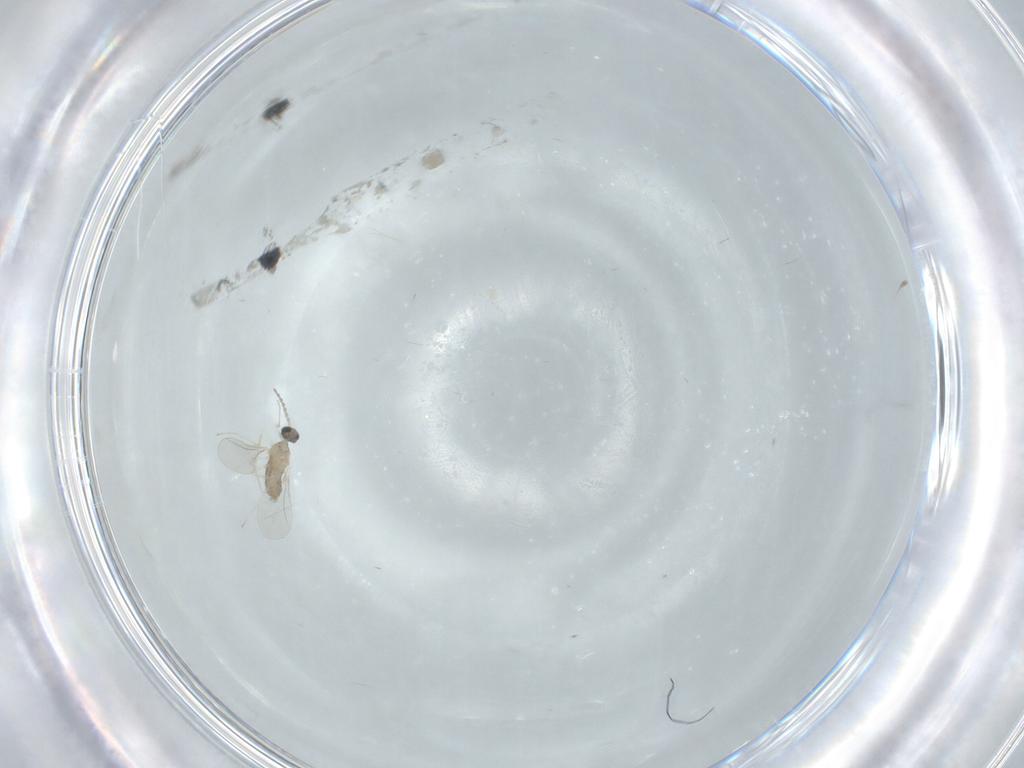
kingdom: Animalia
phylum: Arthropoda
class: Insecta
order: Diptera
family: Cecidomyiidae
